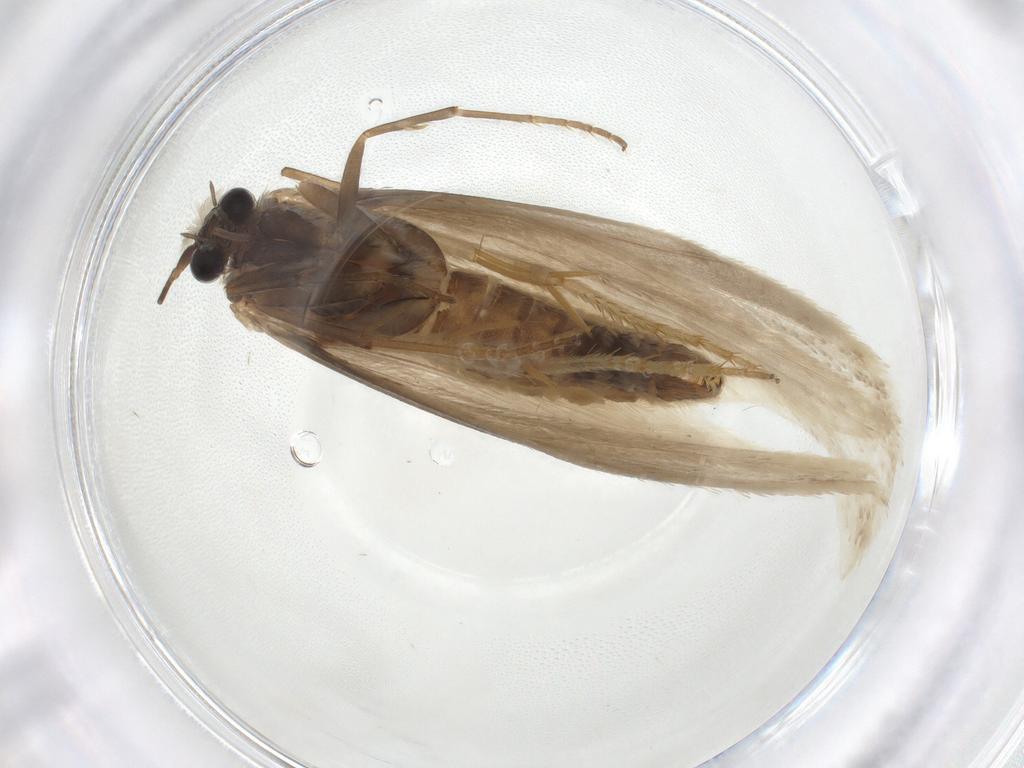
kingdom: Animalia
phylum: Arthropoda
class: Insecta
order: Lepidoptera
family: Tridentaformidae
